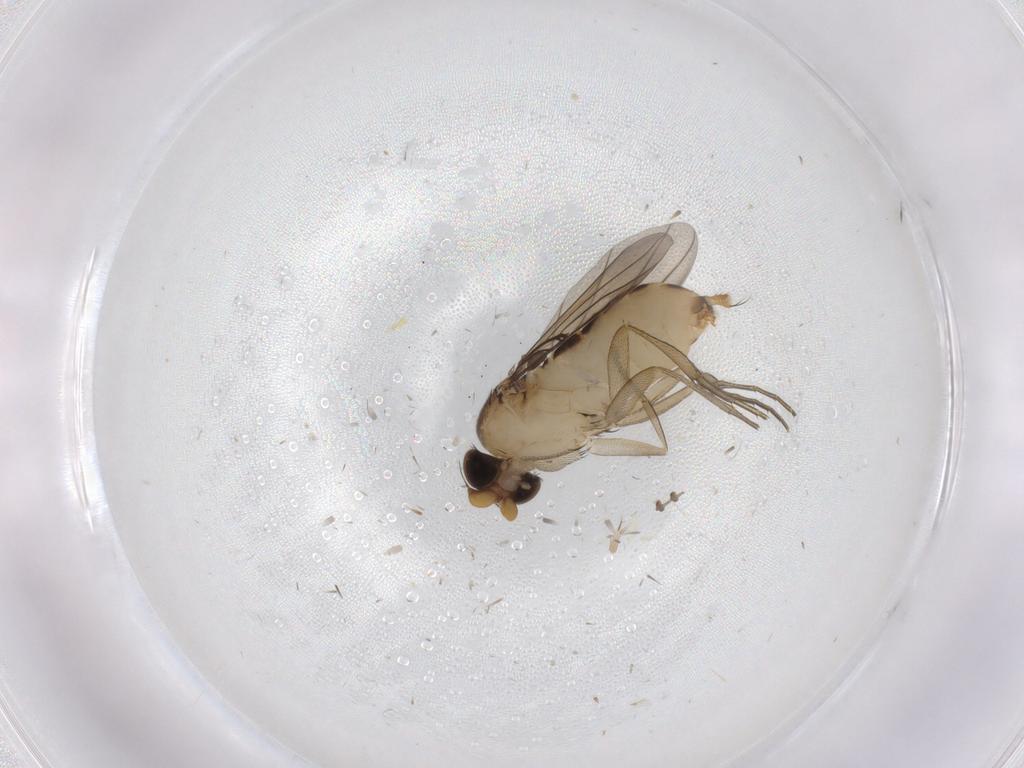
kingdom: Animalia
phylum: Arthropoda
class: Insecta
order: Diptera
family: Phoridae
